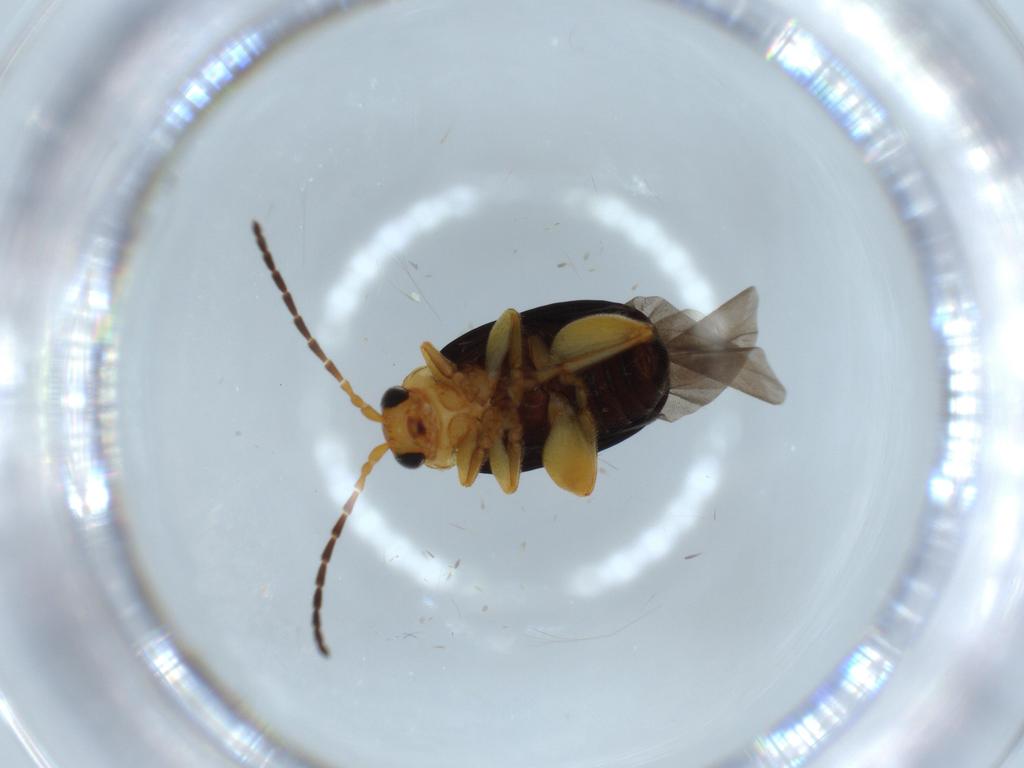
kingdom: Animalia
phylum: Arthropoda
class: Insecta
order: Coleoptera
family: Chrysomelidae
